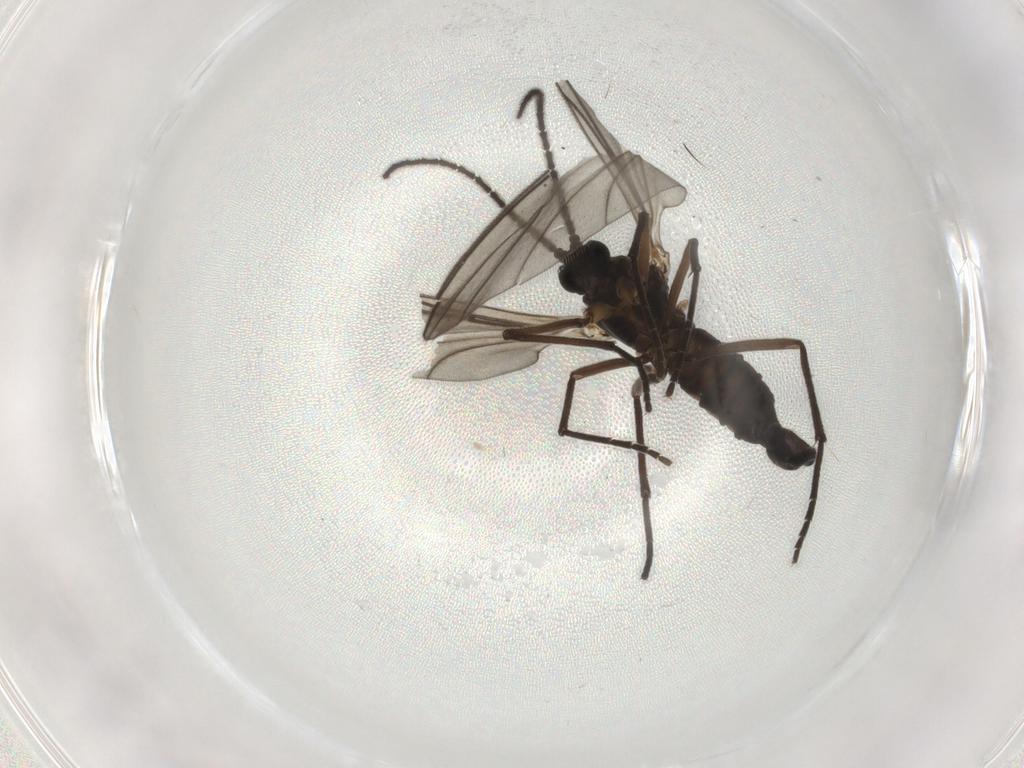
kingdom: Animalia
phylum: Arthropoda
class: Insecta
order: Diptera
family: Sciaridae
